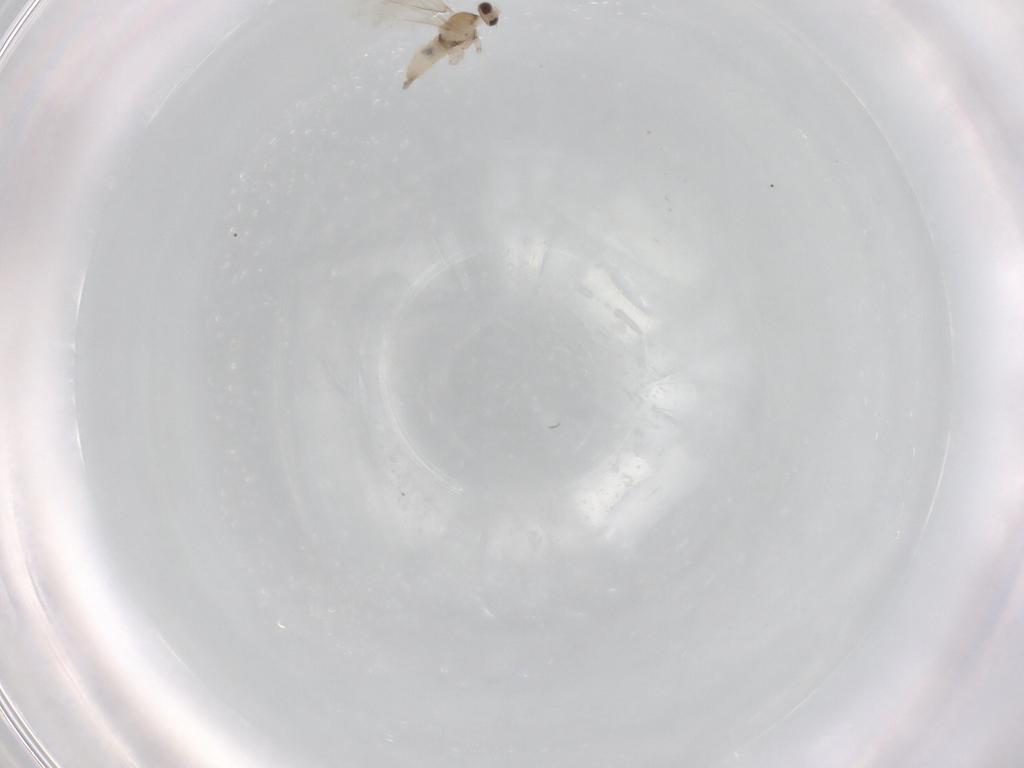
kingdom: Animalia
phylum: Arthropoda
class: Insecta
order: Diptera
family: Cecidomyiidae
